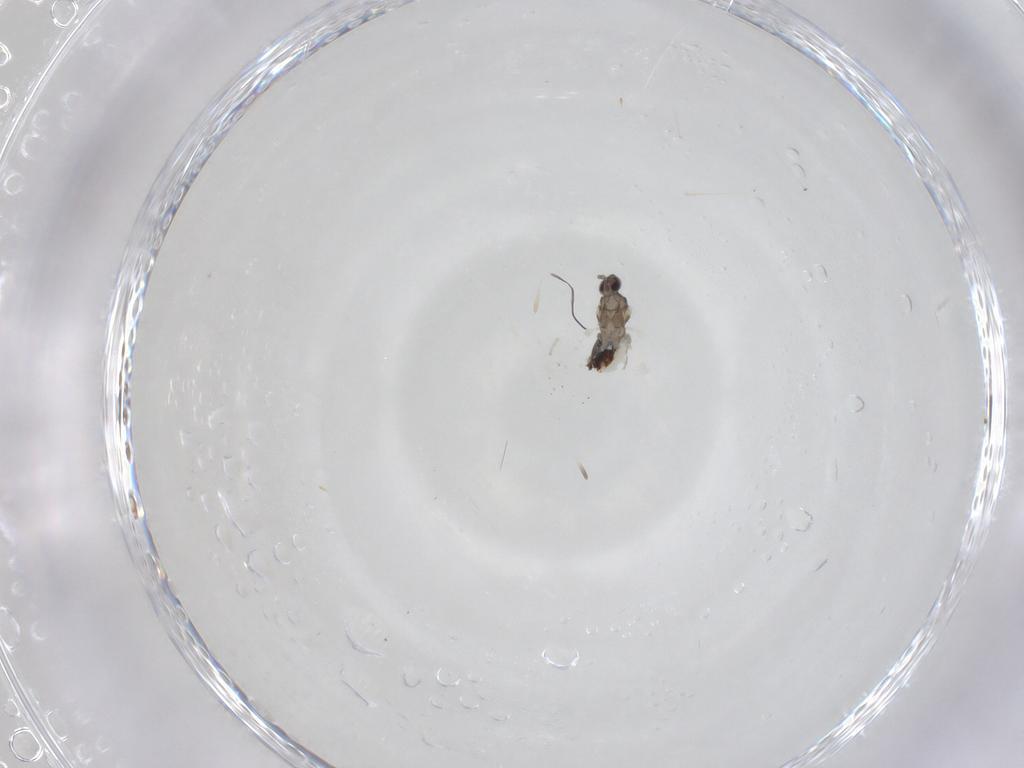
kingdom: Animalia
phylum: Arthropoda
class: Insecta
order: Diptera
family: Cecidomyiidae
